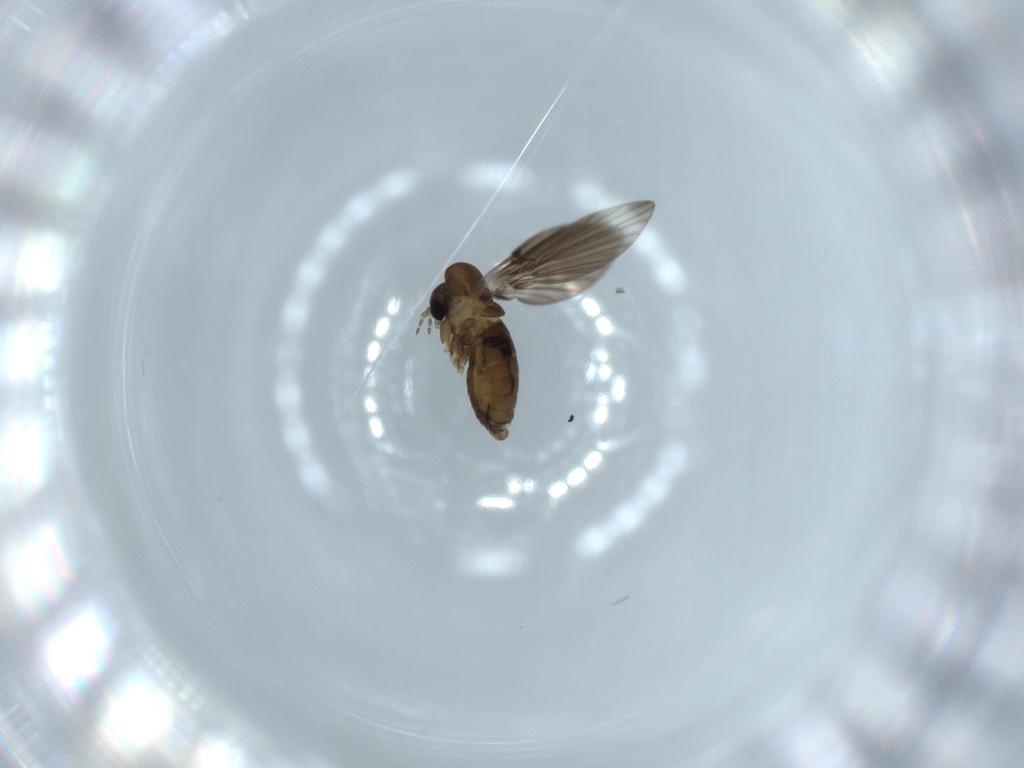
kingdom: Animalia
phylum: Arthropoda
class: Insecta
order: Diptera
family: Psychodidae
